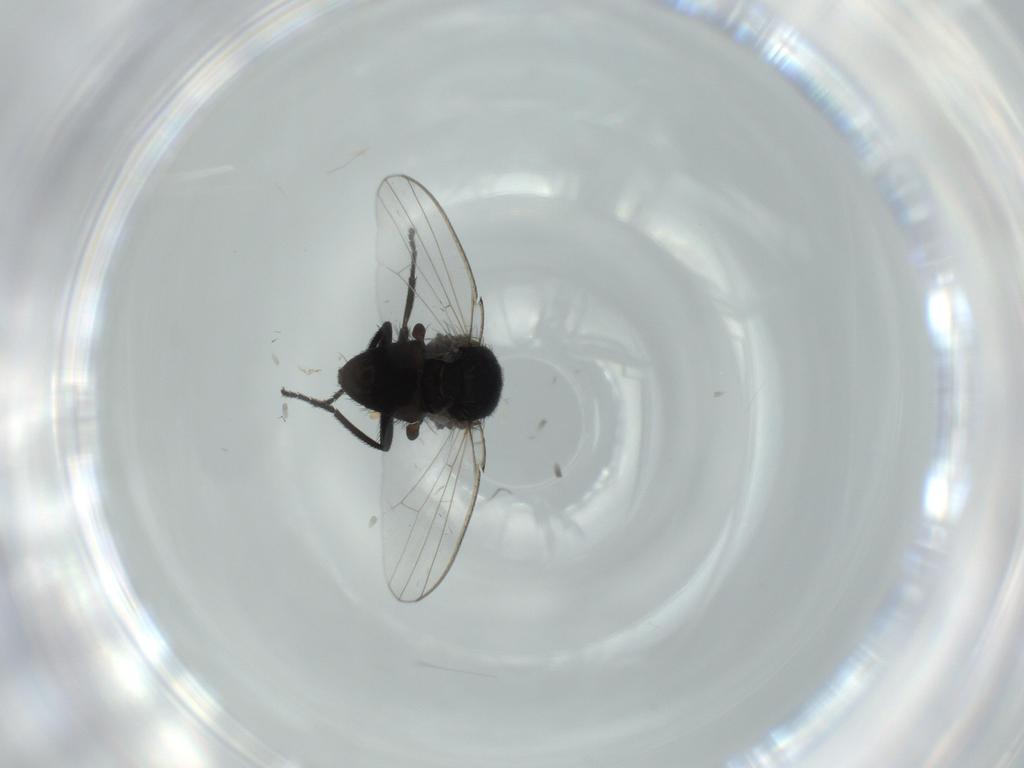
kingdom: Animalia
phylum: Arthropoda
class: Insecta
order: Diptera
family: Milichiidae
